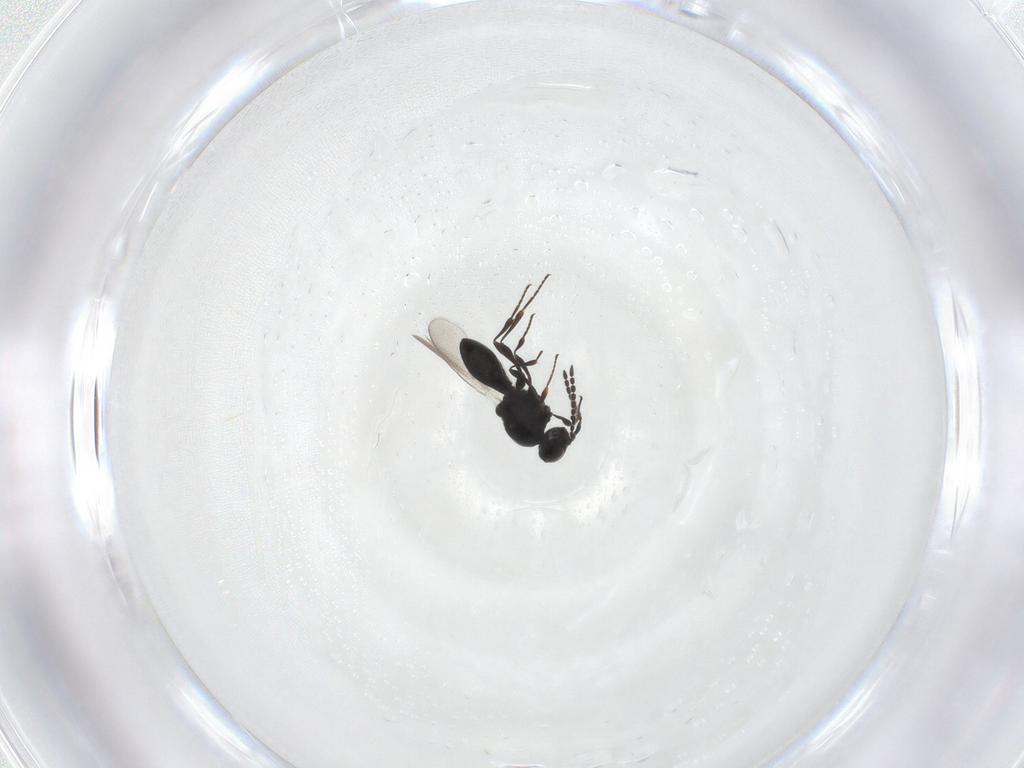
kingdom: Animalia
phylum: Arthropoda
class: Insecta
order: Hymenoptera
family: Platygastridae
